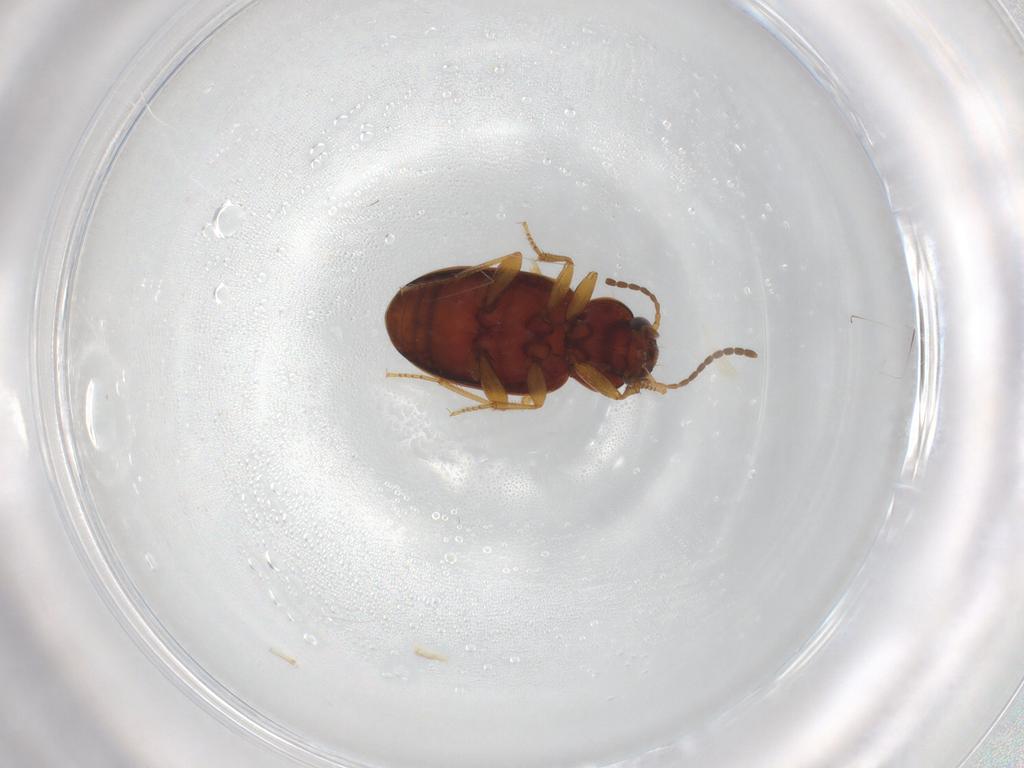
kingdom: Animalia
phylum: Arthropoda
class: Insecta
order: Coleoptera
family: Carabidae
